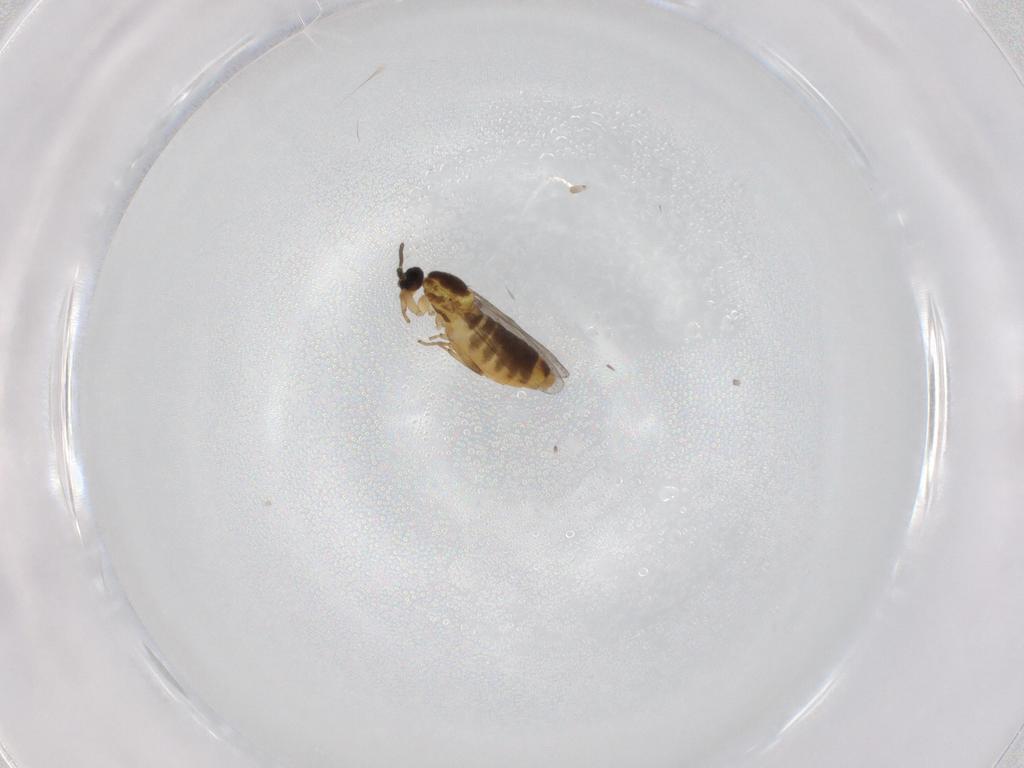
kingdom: Animalia
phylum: Arthropoda
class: Insecta
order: Diptera
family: Scatopsidae
